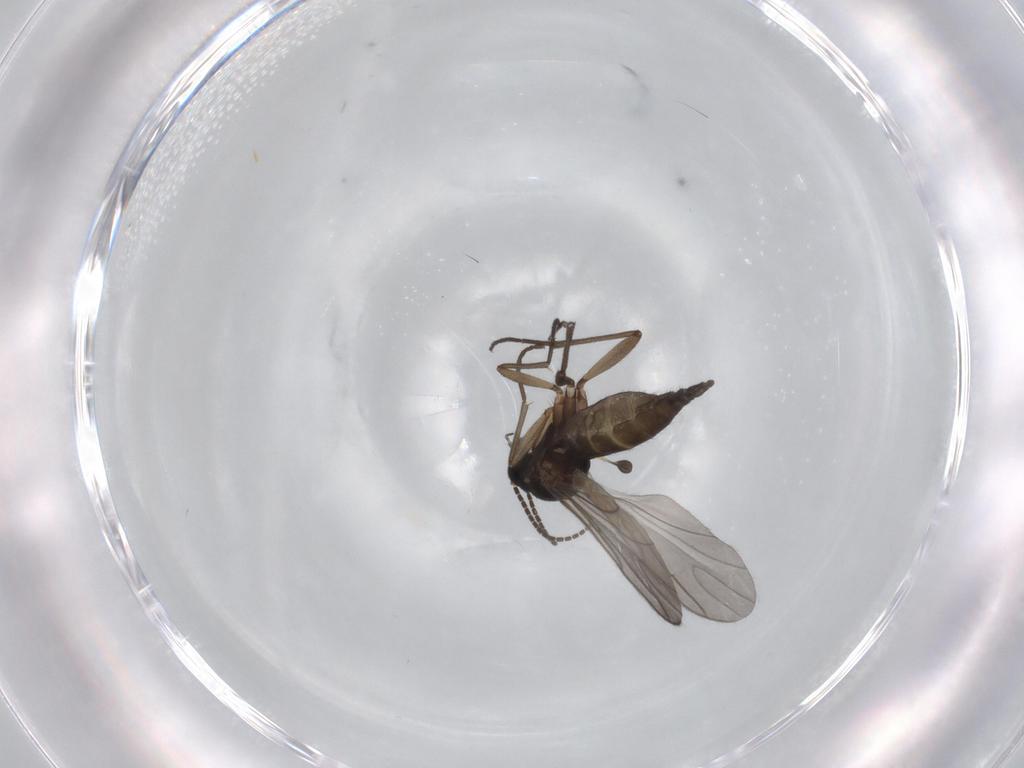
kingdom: Animalia
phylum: Arthropoda
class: Insecta
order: Diptera
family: Sciaridae
